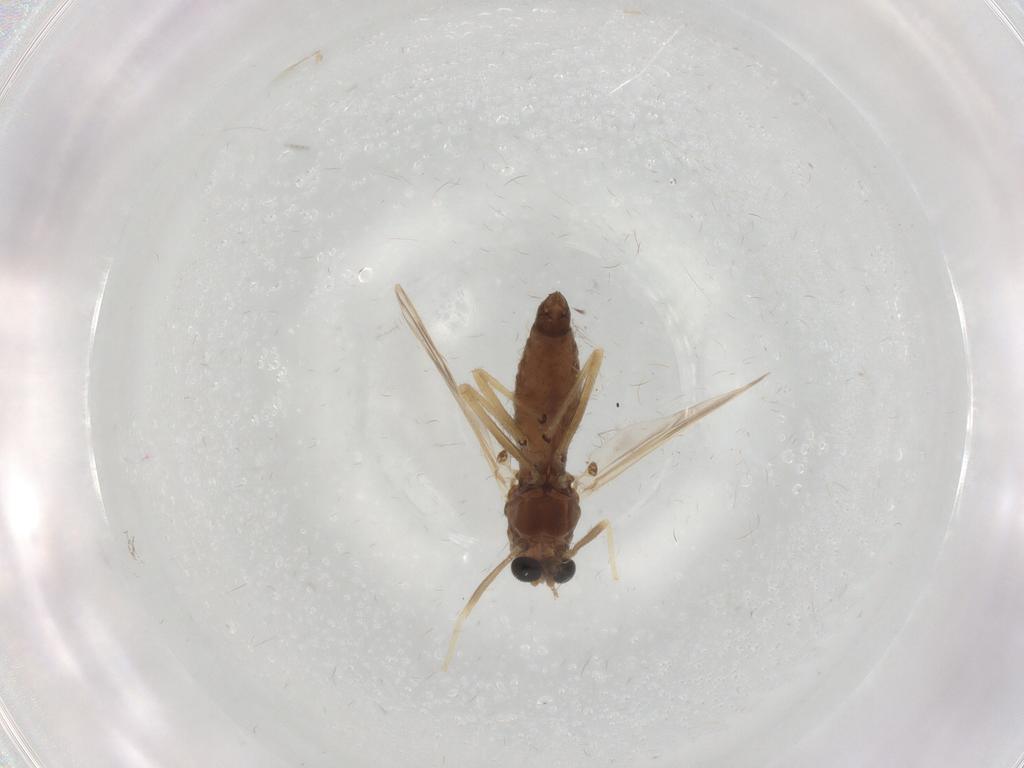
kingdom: Animalia
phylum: Arthropoda
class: Insecta
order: Diptera
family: Chironomidae
